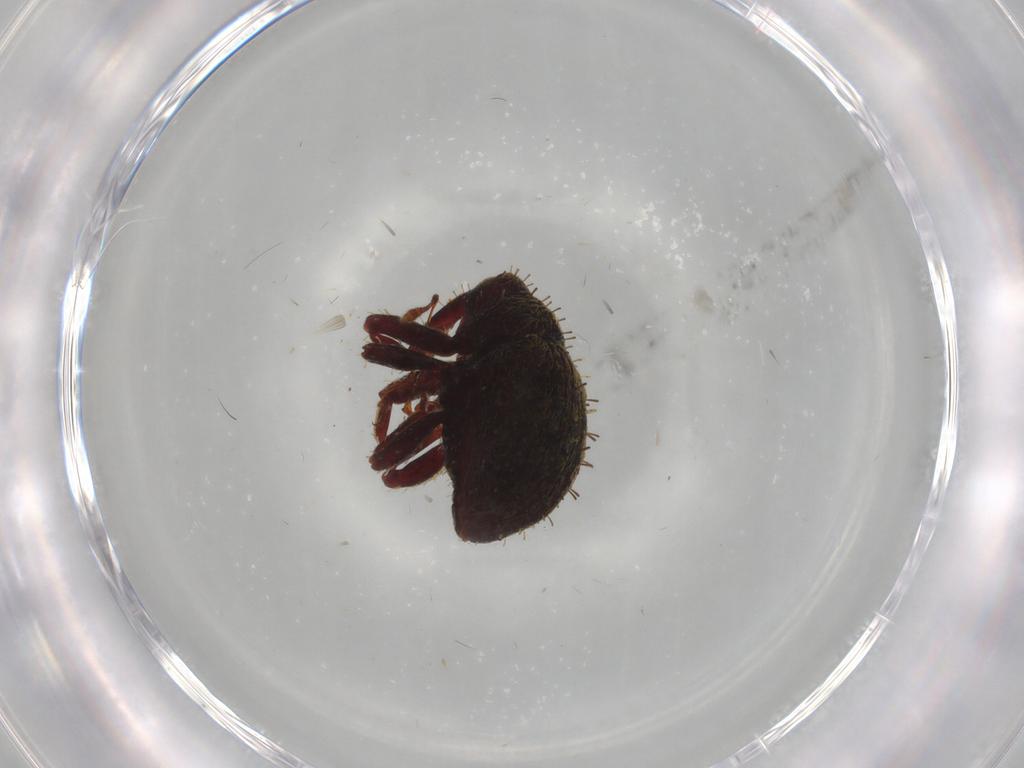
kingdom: Animalia
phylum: Arthropoda
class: Insecta
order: Coleoptera
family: Curculionidae
